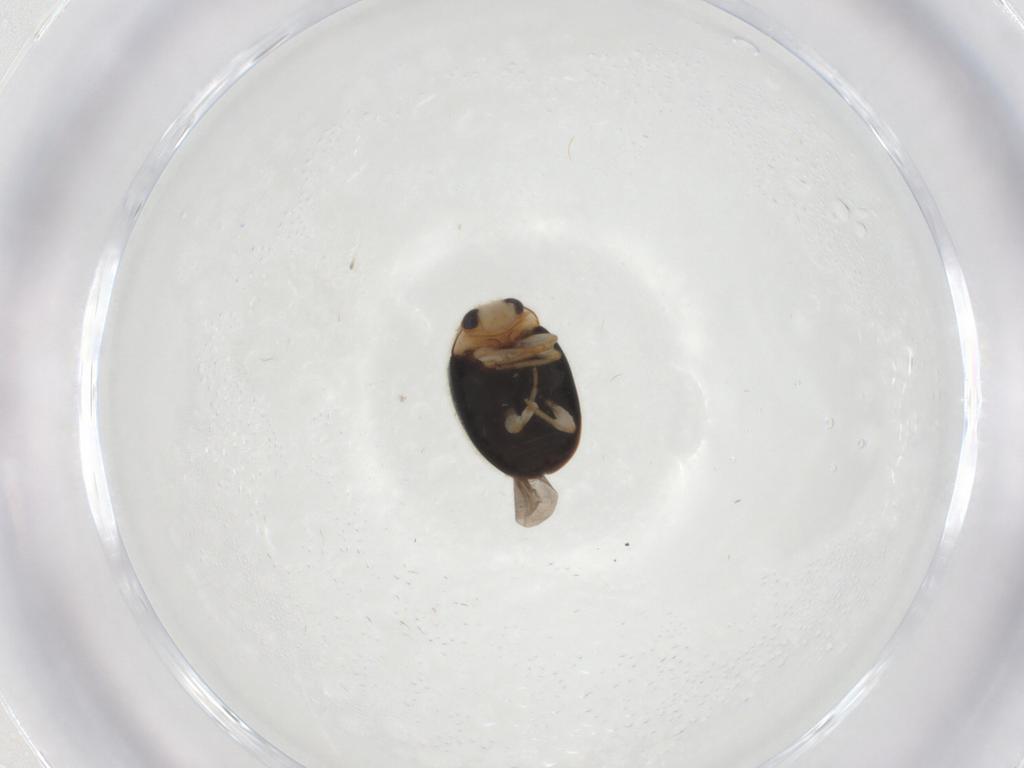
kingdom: Animalia
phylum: Arthropoda
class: Insecta
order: Coleoptera
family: Coccinellidae
